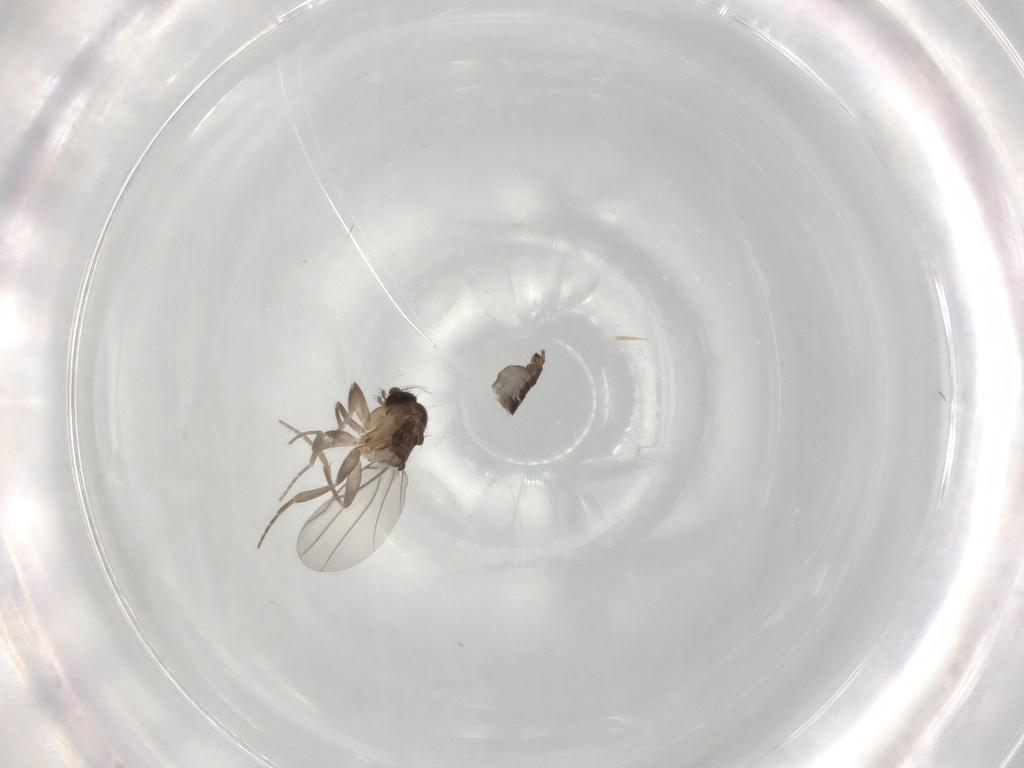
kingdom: Animalia
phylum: Arthropoda
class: Insecta
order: Diptera
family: Phoridae
